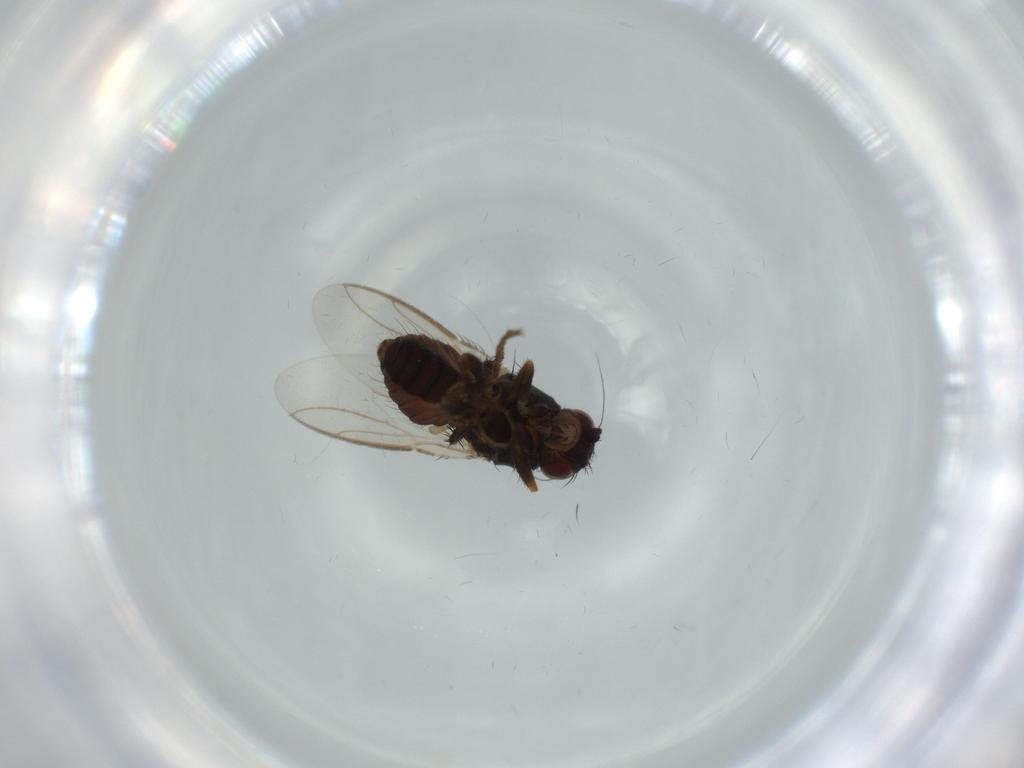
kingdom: Animalia
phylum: Arthropoda
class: Insecta
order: Diptera
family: Sphaeroceridae
